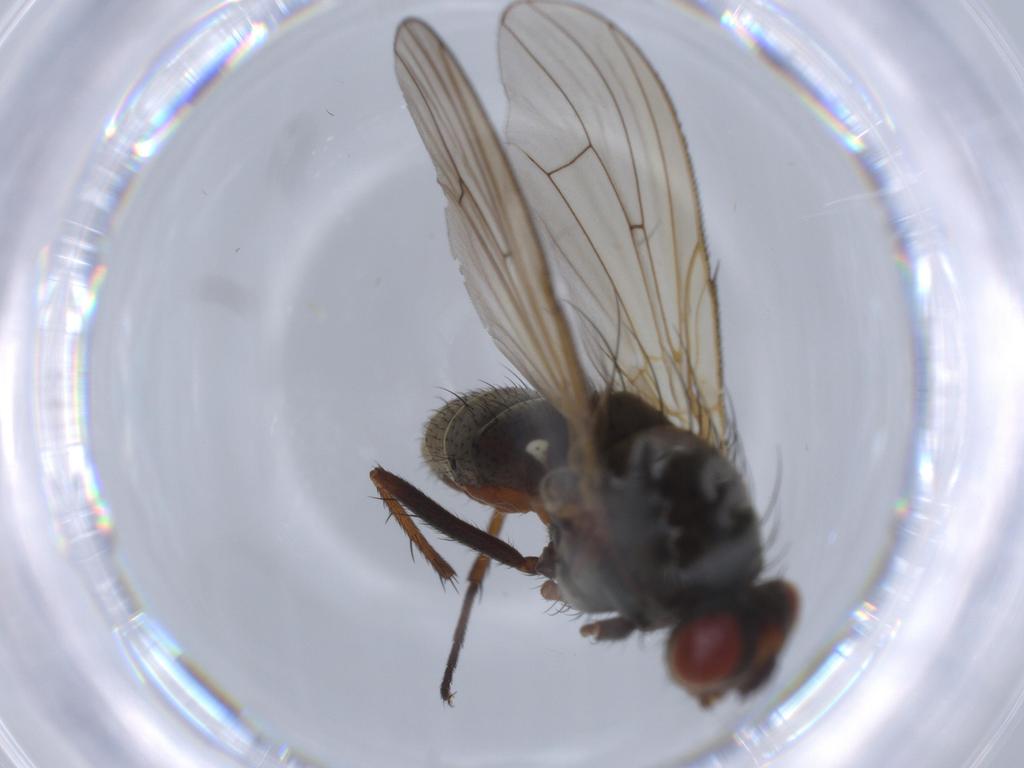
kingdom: Animalia
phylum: Arthropoda
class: Insecta
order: Diptera
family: Anthomyiidae
